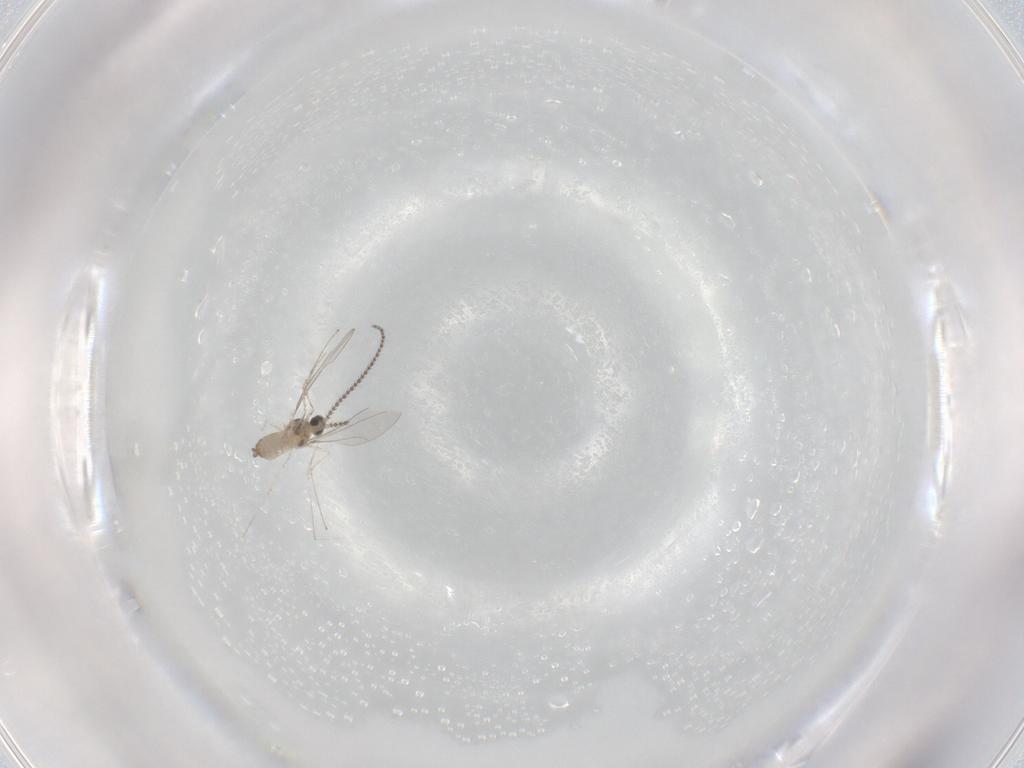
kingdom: Animalia
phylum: Arthropoda
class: Insecta
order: Diptera
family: Cecidomyiidae
